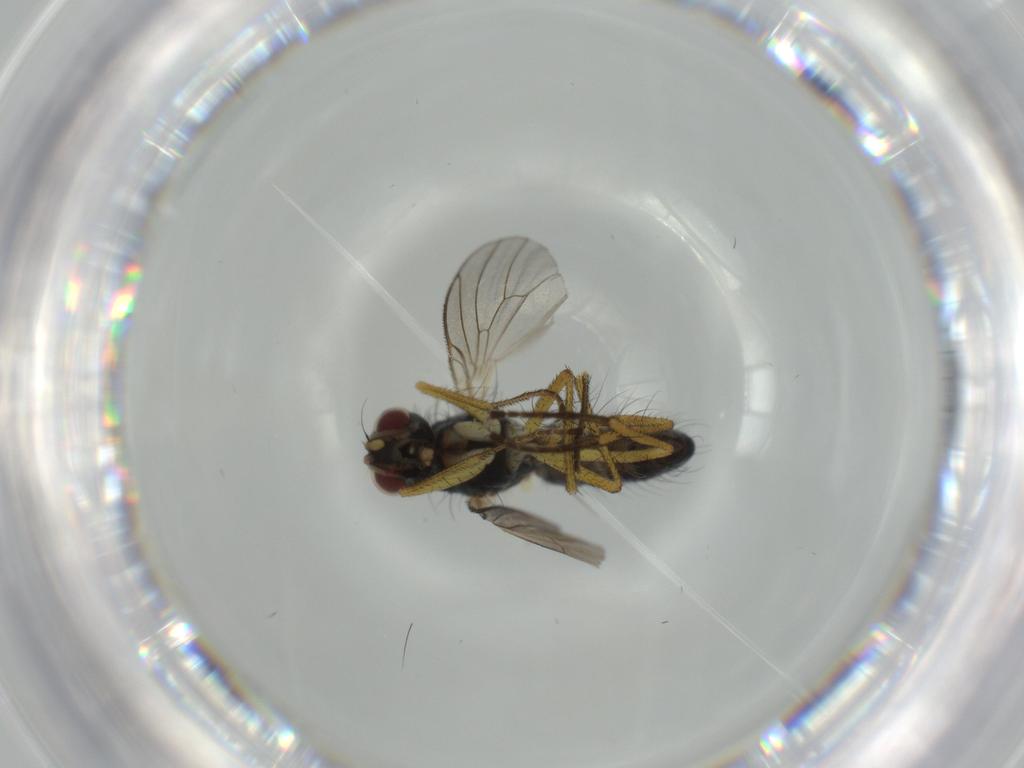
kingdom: Animalia
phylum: Arthropoda
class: Insecta
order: Diptera
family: Muscidae
